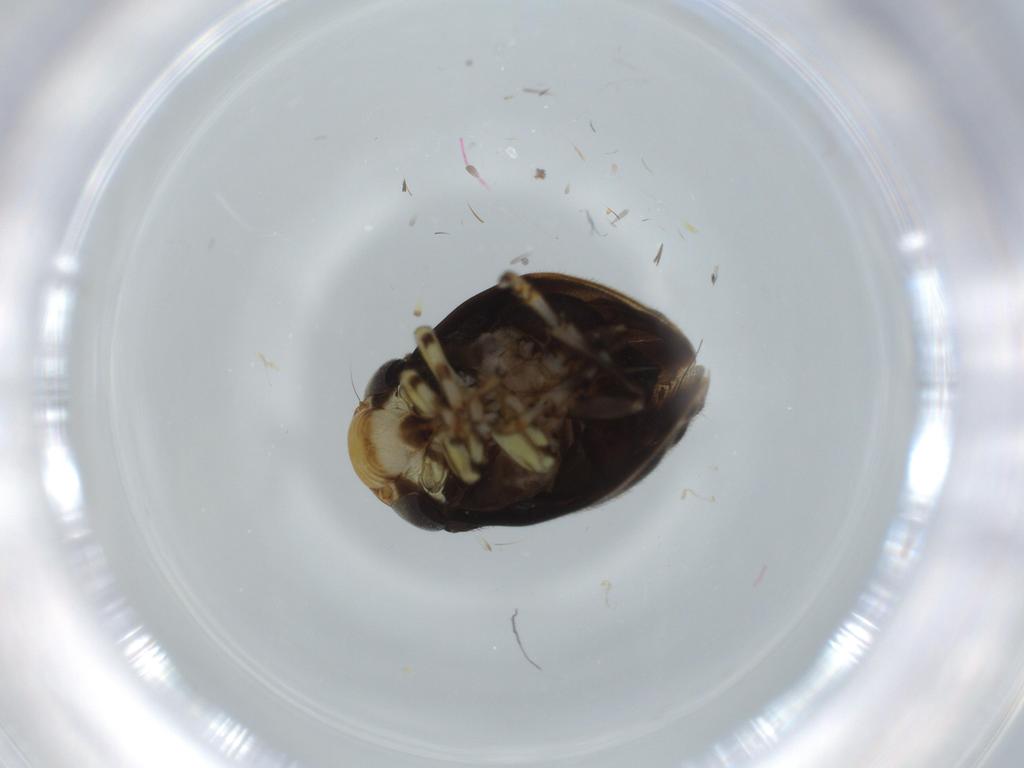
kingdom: Animalia
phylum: Arthropoda
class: Insecta
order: Hemiptera
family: Clastopteridae
